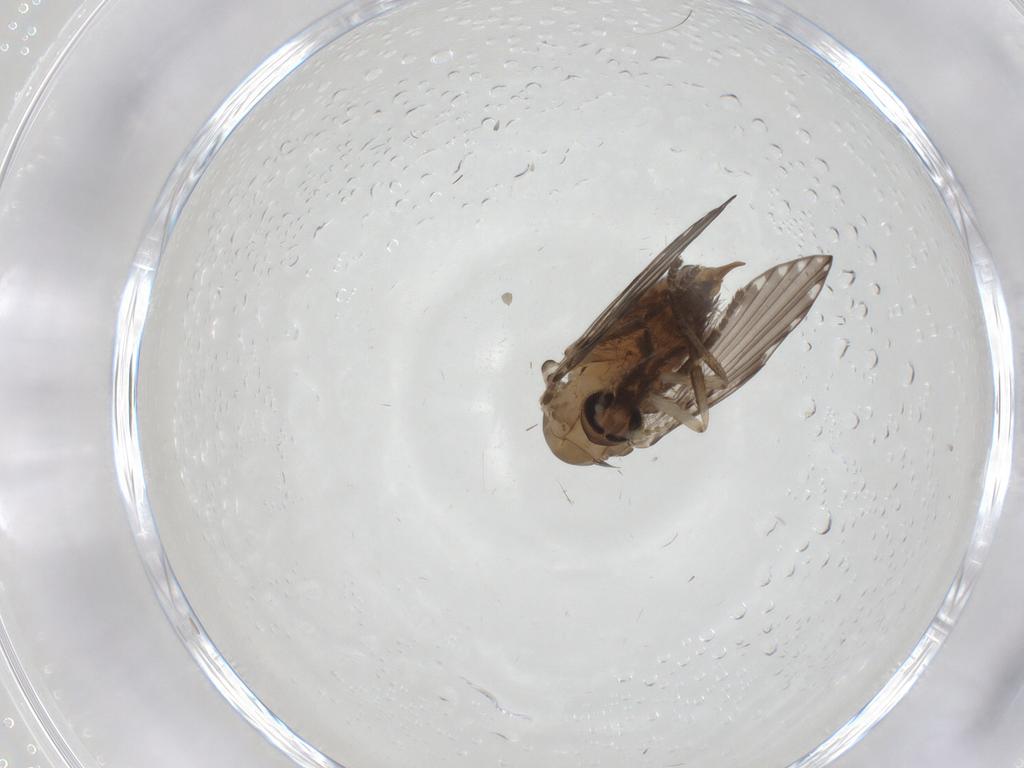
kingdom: Animalia
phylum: Arthropoda
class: Insecta
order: Diptera
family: Psychodidae
